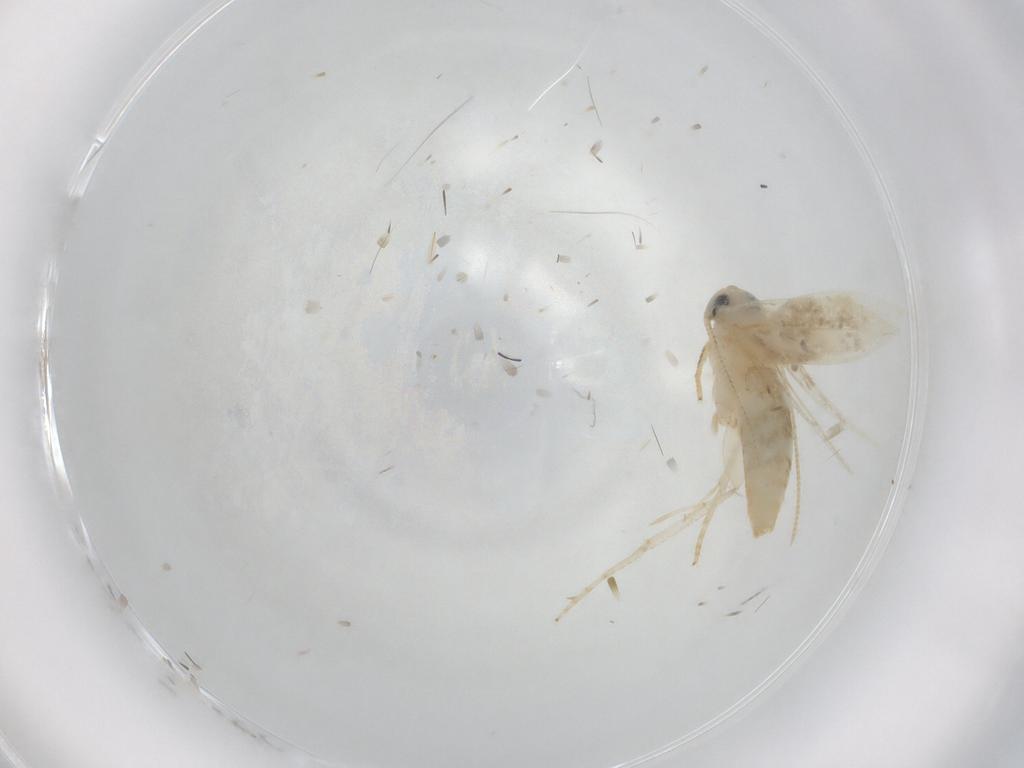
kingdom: Animalia
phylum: Arthropoda
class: Insecta
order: Lepidoptera
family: Opostegidae
